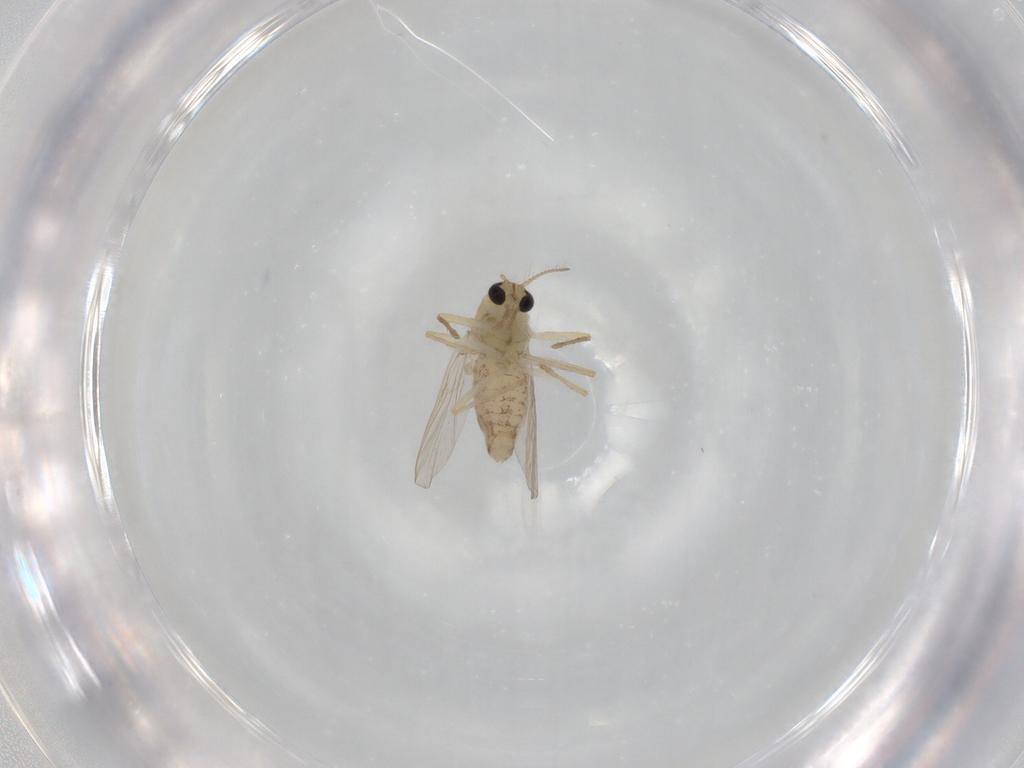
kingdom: Animalia
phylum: Arthropoda
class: Insecta
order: Diptera
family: Chironomidae
